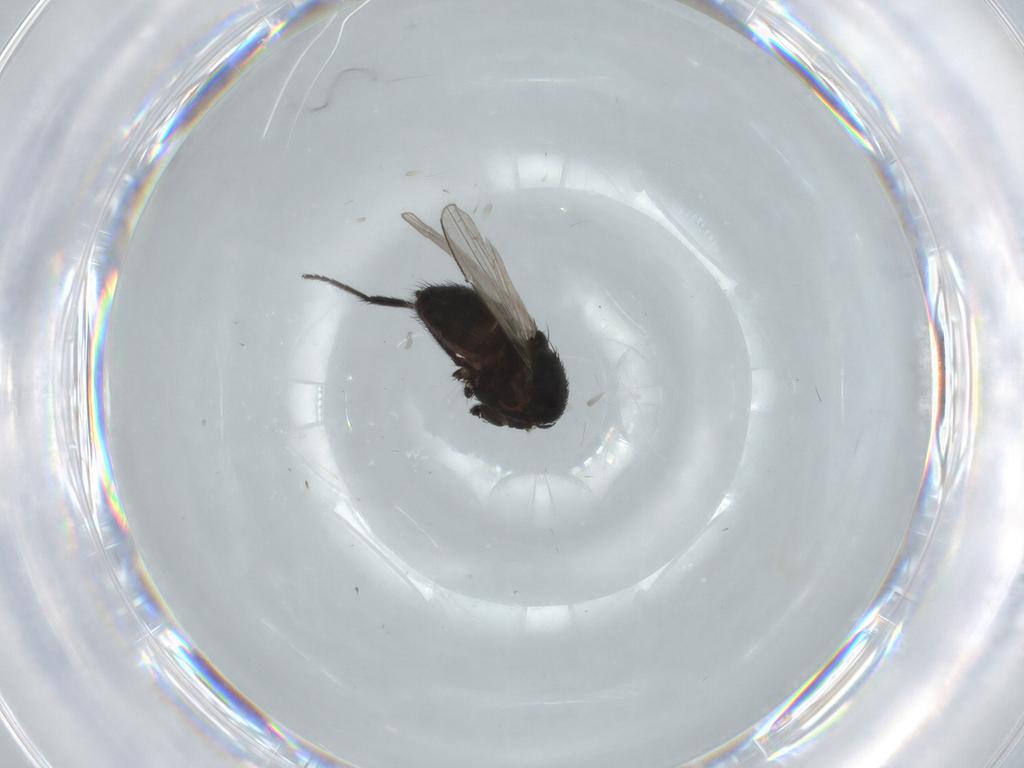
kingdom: Animalia
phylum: Arthropoda
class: Insecta
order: Diptera
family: Milichiidae
